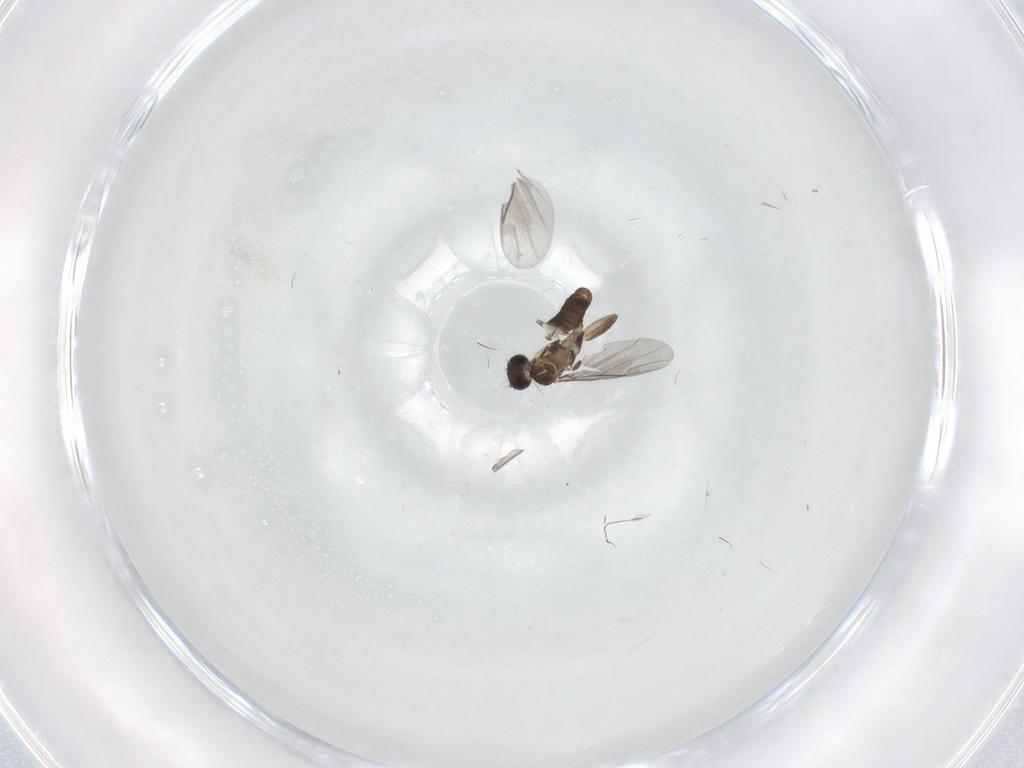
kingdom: Animalia
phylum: Arthropoda
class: Insecta
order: Diptera
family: Cecidomyiidae
